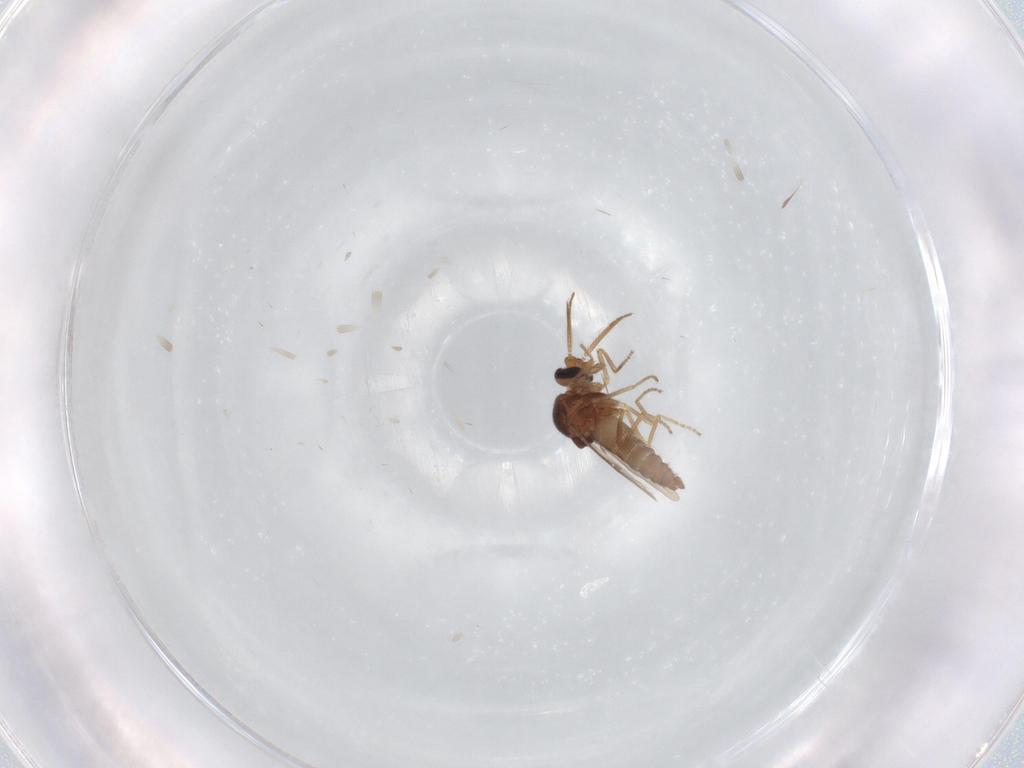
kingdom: Animalia
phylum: Arthropoda
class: Insecta
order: Diptera
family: Ceratopogonidae
